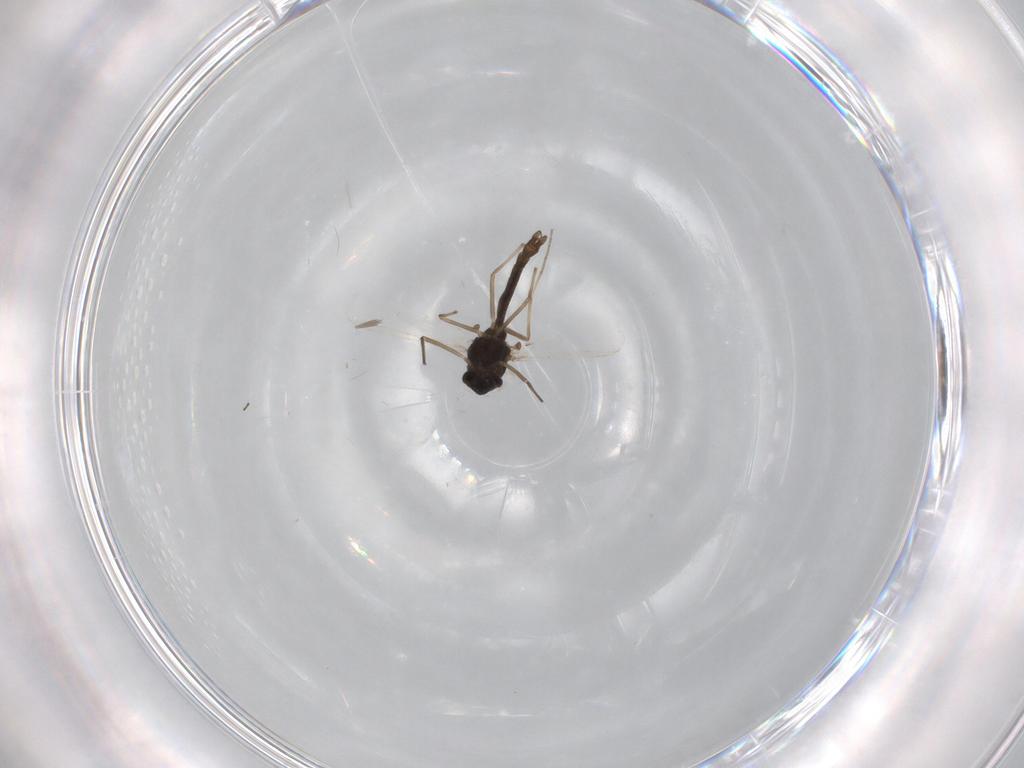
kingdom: Animalia
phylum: Arthropoda
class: Insecta
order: Diptera
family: Chironomidae
